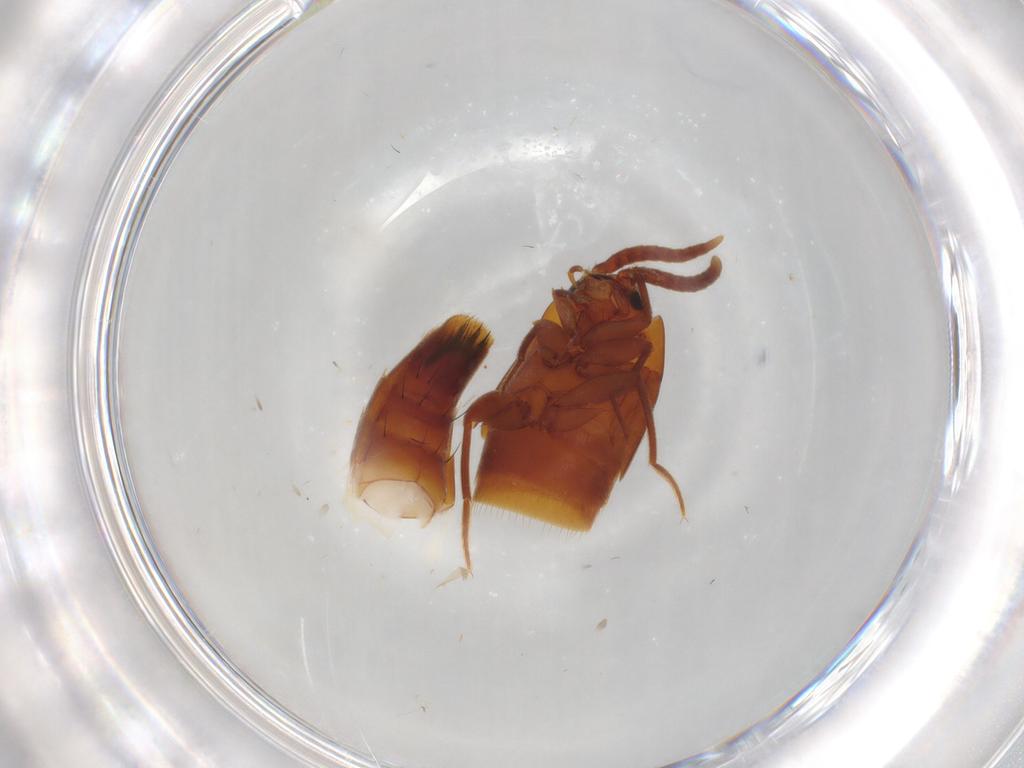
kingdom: Animalia
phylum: Arthropoda
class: Insecta
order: Coleoptera
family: Staphylinidae
